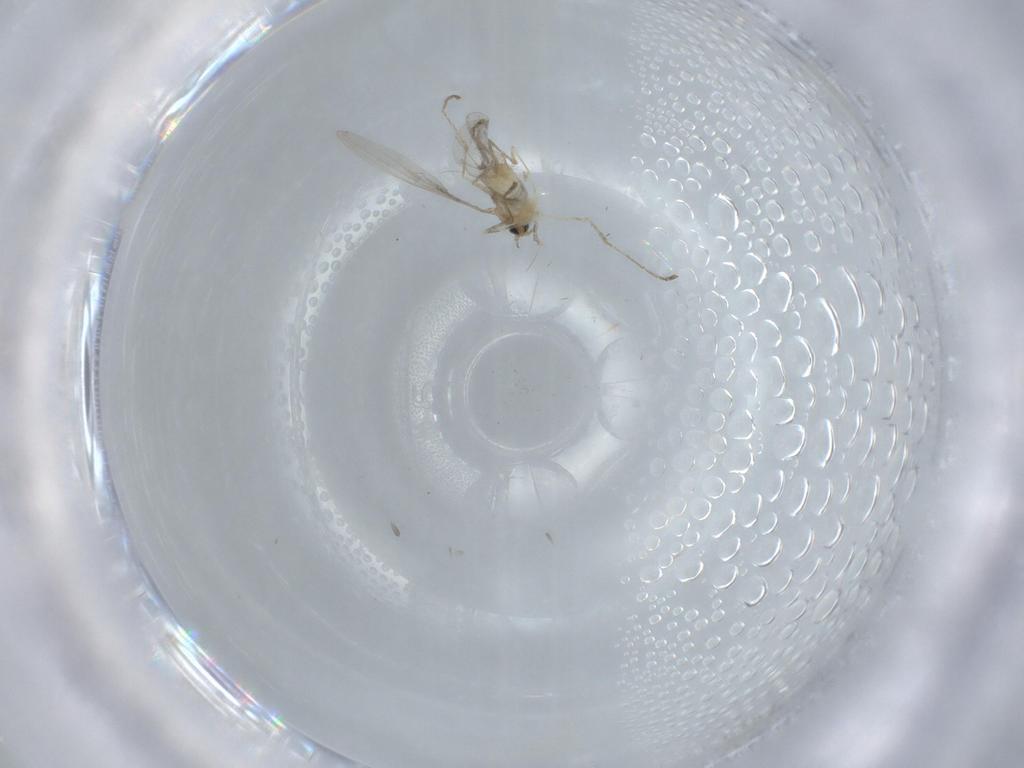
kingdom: Animalia
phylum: Arthropoda
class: Insecta
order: Diptera
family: Cecidomyiidae
